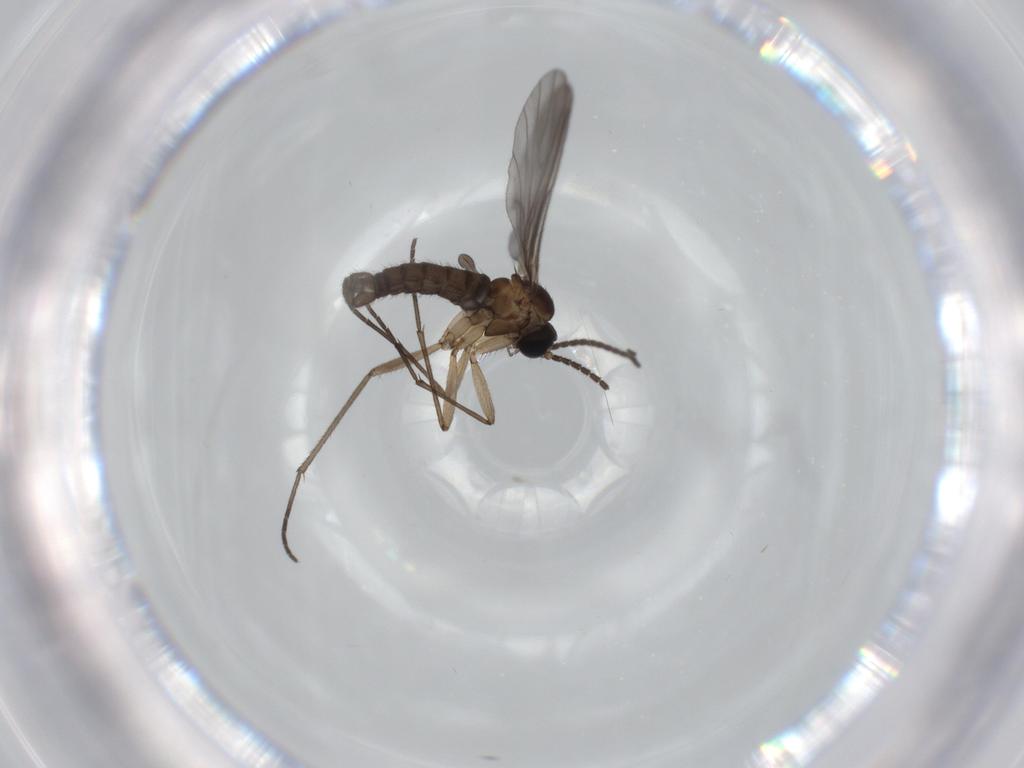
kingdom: Animalia
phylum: Arthropoda
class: Insecta
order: Diptera
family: Sciaridae
